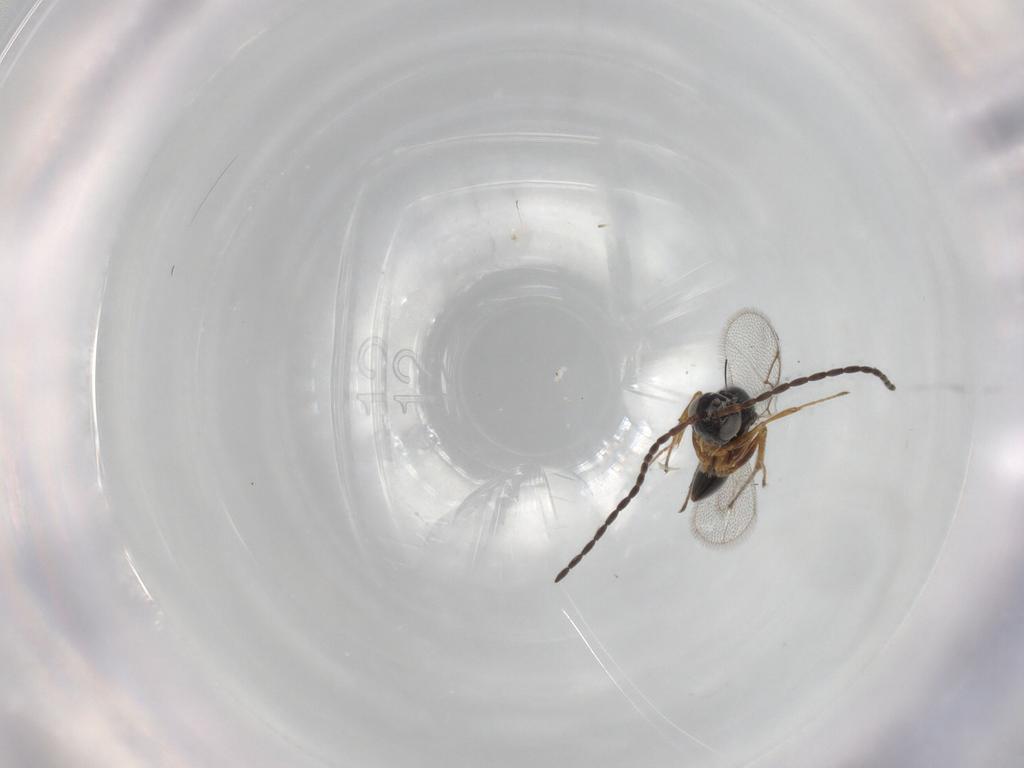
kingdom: Animalia
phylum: Arthropoda
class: Insecta
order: Hymenoptera
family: Figitidae
